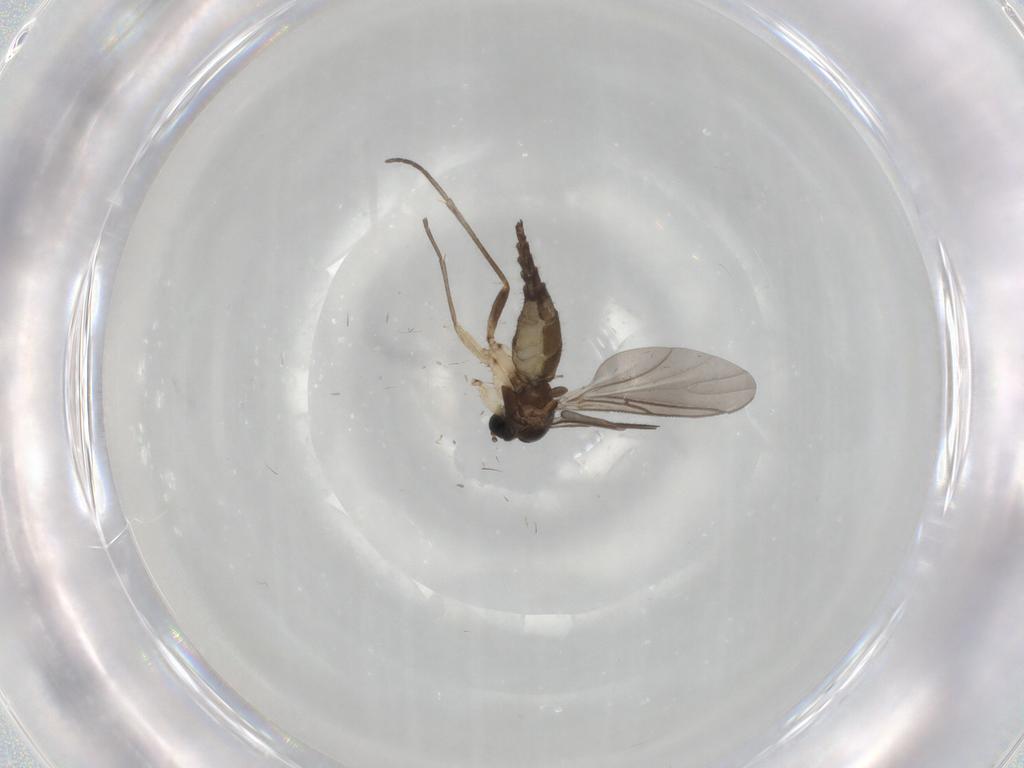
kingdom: Animalia
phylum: Arthropoda
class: Insecta
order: Diptera
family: Sciaridae
